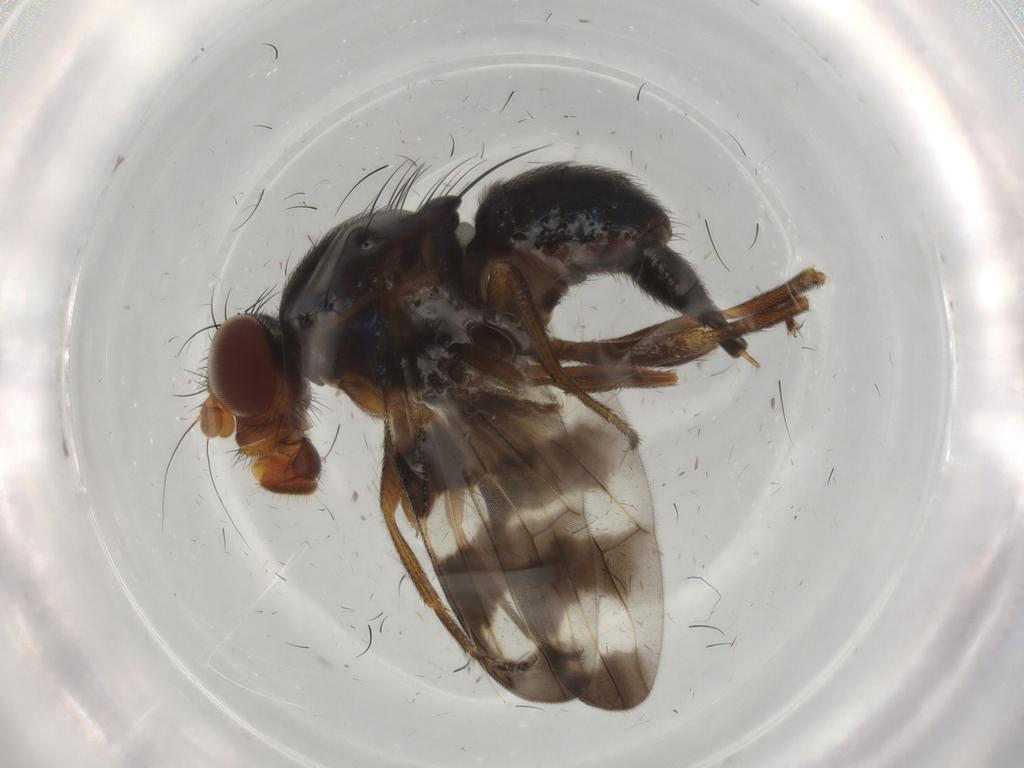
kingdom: Animalia
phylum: Arthropoda
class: Insecta
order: Diptera
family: Ulidiidae
